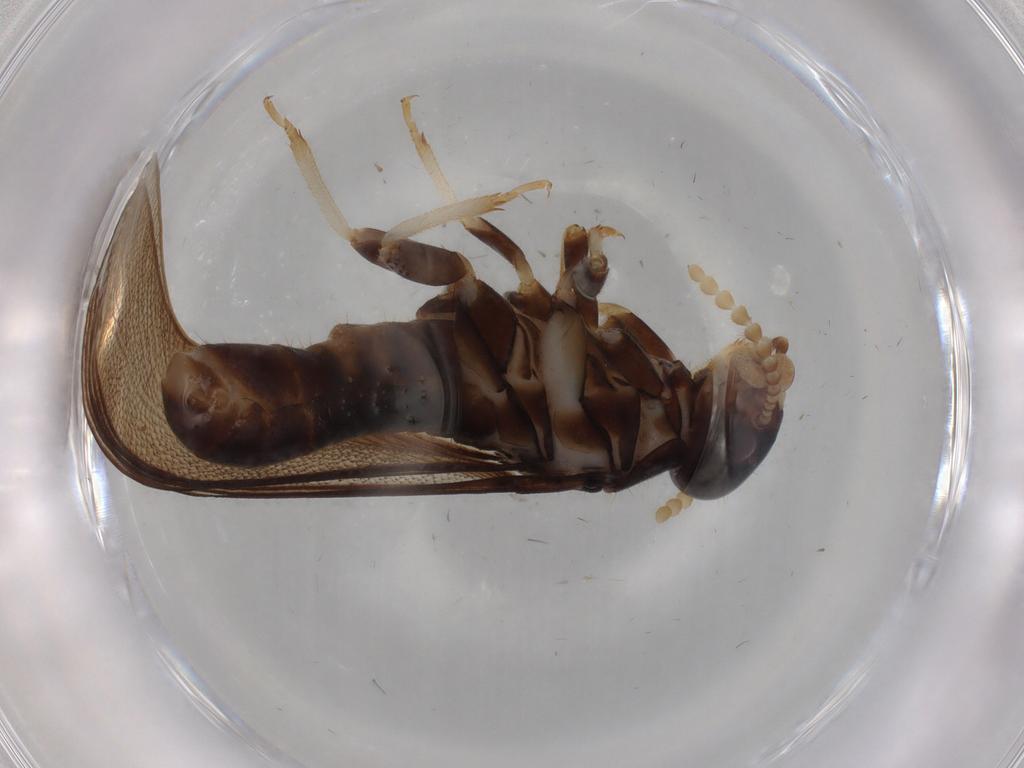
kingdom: Animalia
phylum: Arthropoda
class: Insecta
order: Blattodea
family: Kalotermitidae
